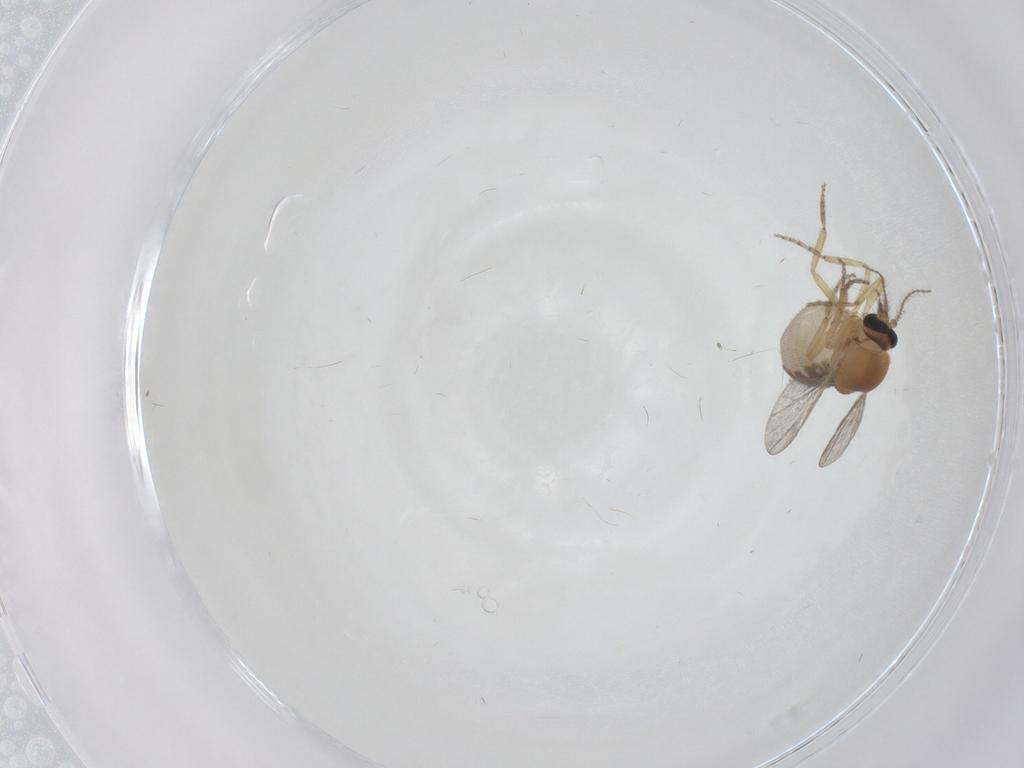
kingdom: Animalia
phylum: Arthropoda
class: Insecta
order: Diptera
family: Ceratopogonidae
